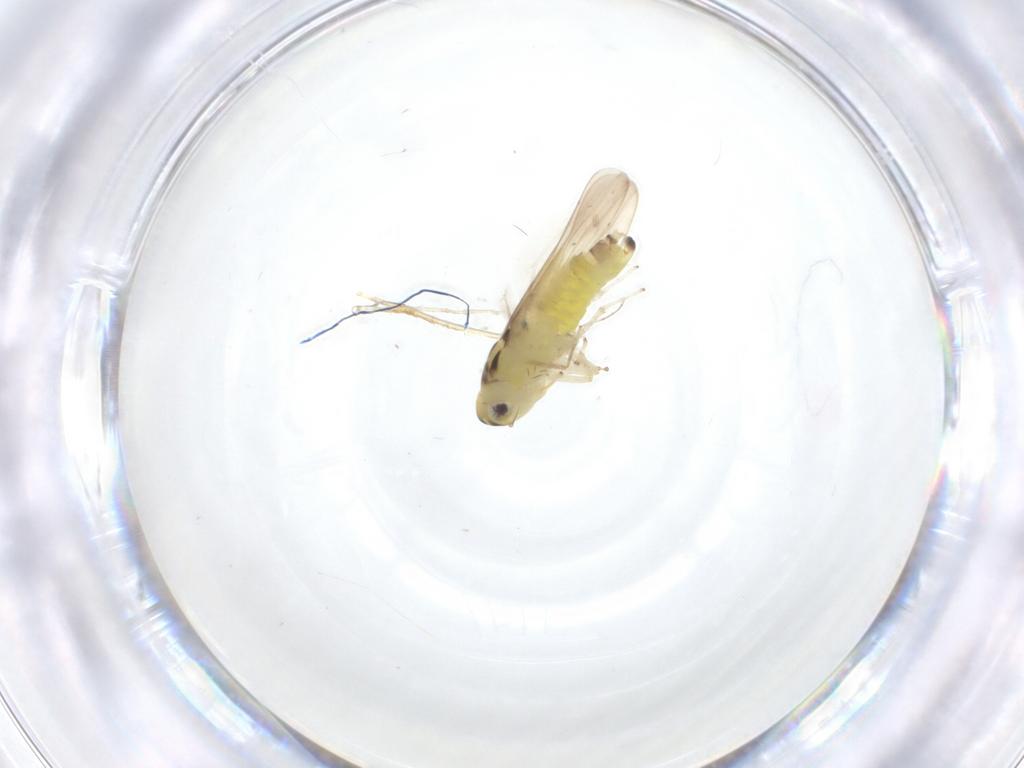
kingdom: Animalia
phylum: Arthropoda
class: Insecta
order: Hemiptera
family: Cicadellidae
